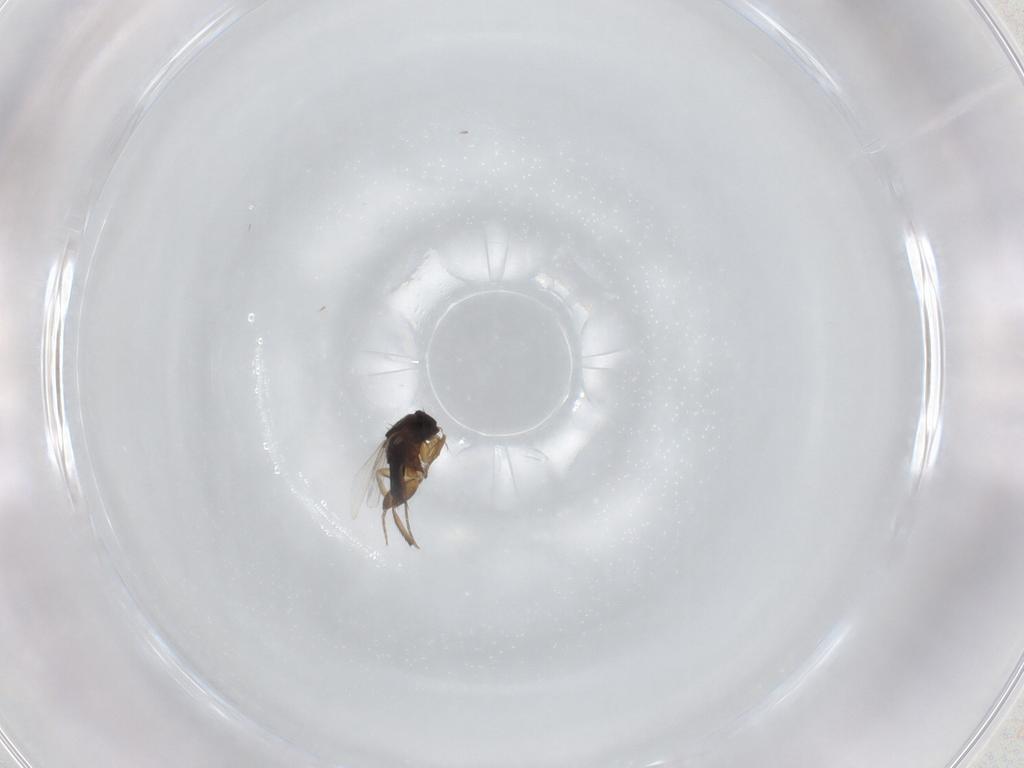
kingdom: Animalia
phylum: Arthropoda
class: Insecta
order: Diptera
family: Phoridae
